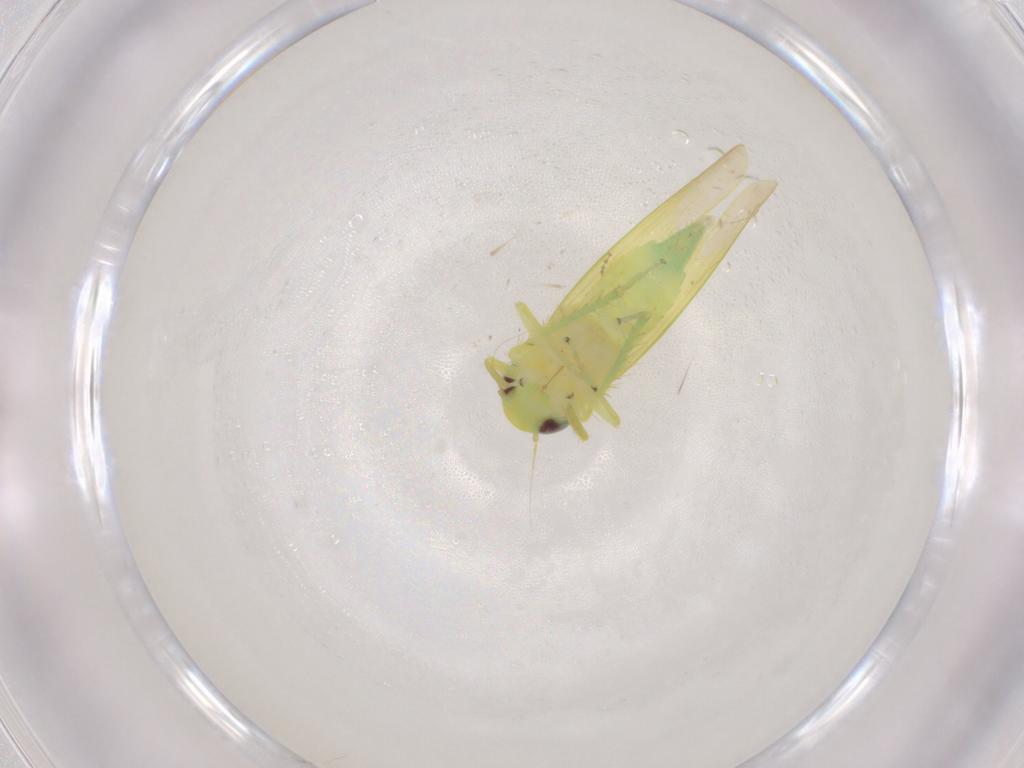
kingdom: Animalia
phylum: Arthropoda
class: Insecta
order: Hemiptera
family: Cicadellidae
